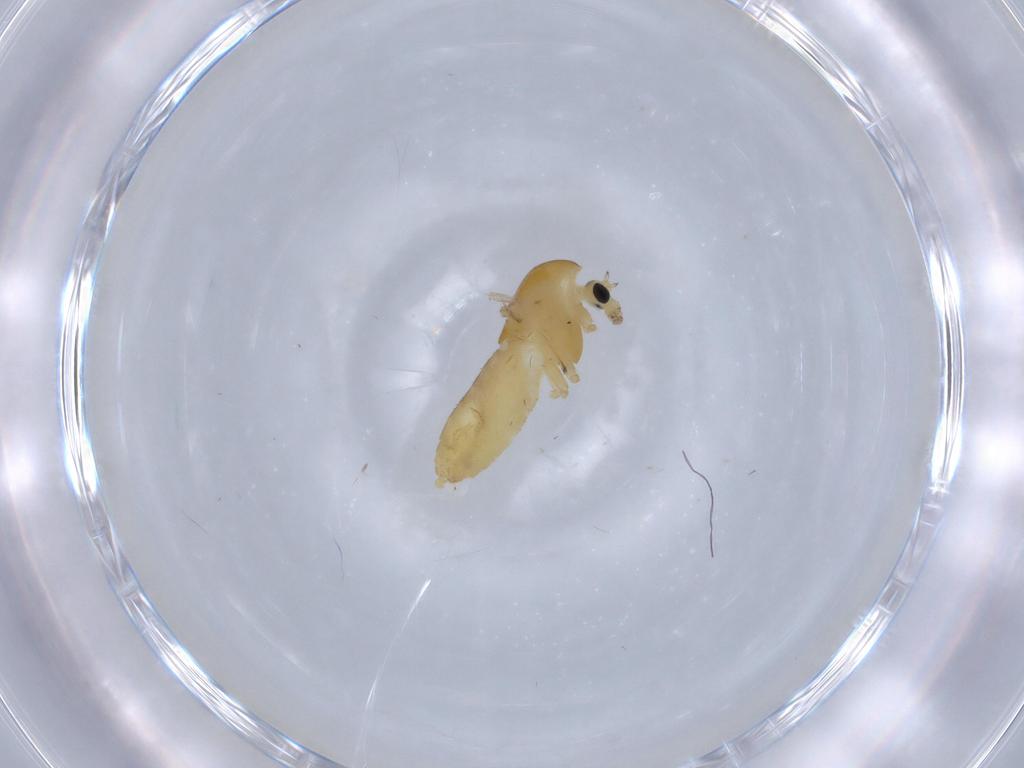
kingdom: Animalia
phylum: Arthropoda
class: Insecta
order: Diptera
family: Chironomidae
